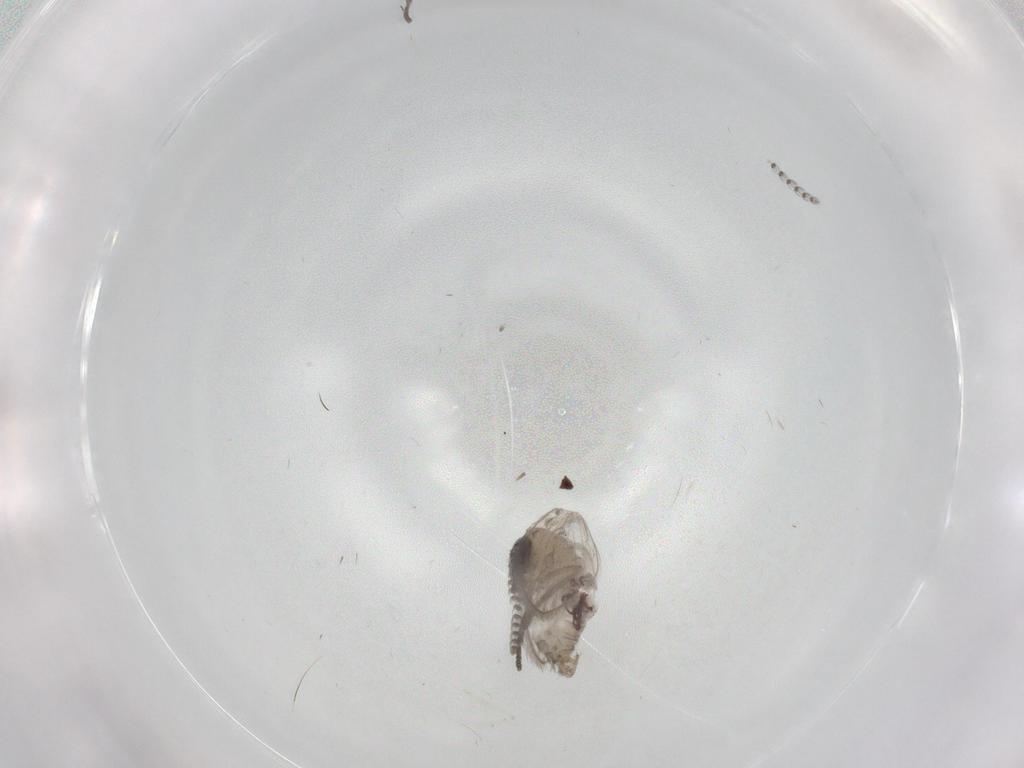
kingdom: Animalia
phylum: Arthropoda
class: Insecta
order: Diptera
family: Psychodidae
